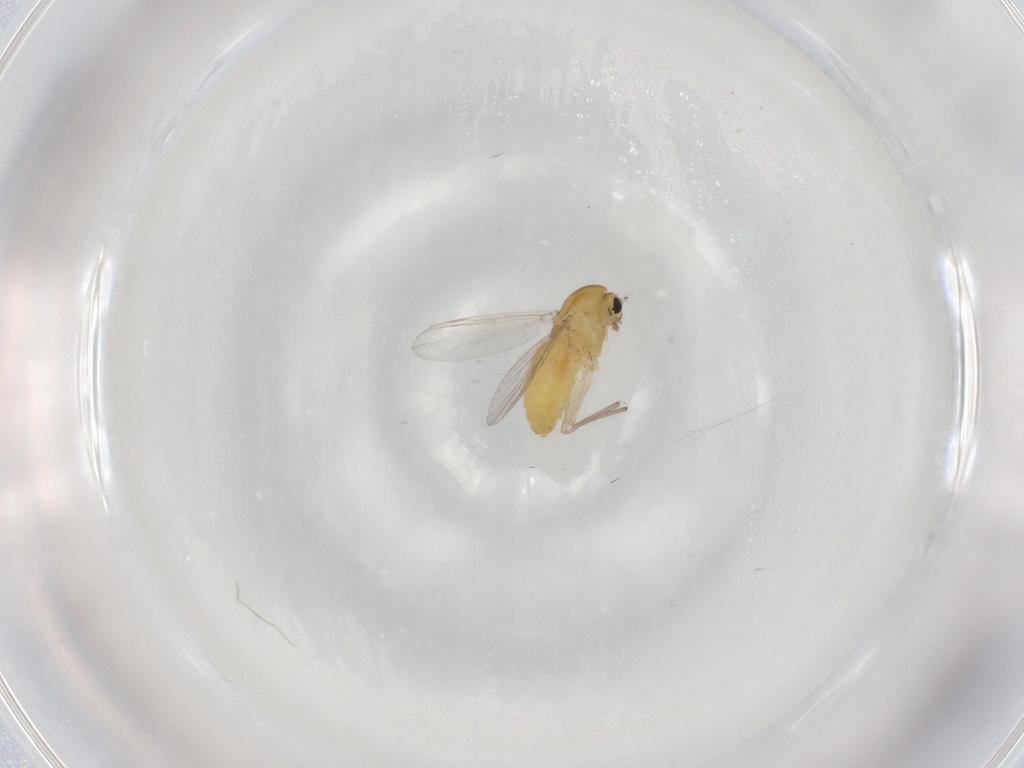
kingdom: Animalia
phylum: Arthropoda
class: Insecta
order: Diptera
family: Chironomidae
